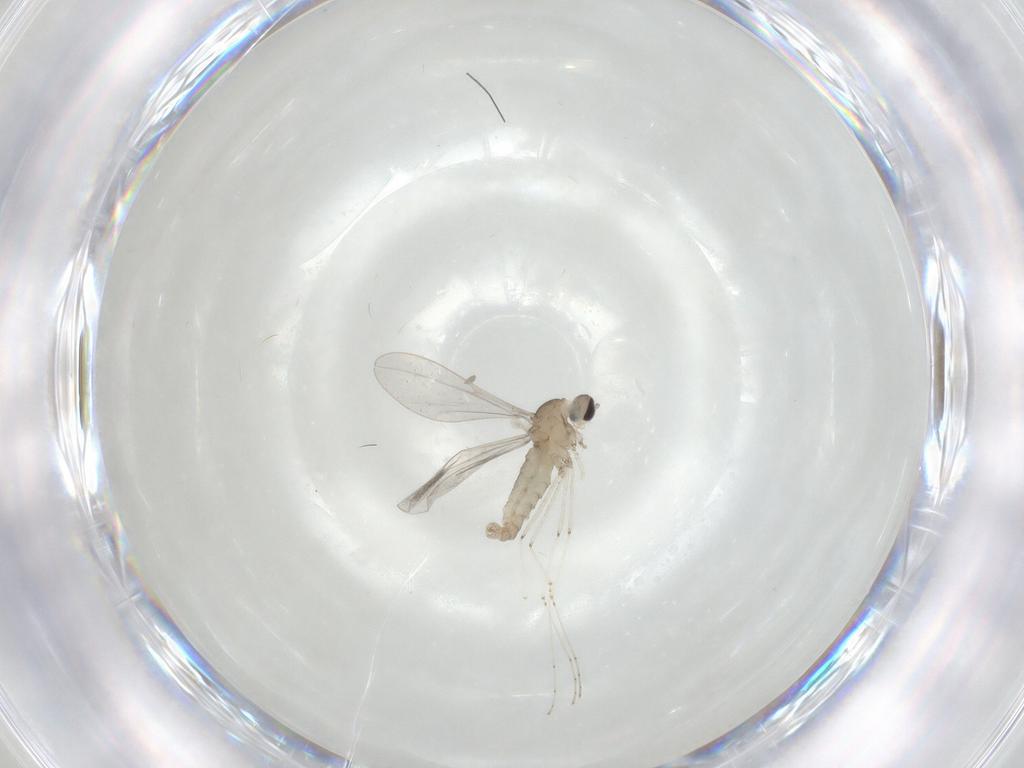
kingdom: Animalia
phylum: Arthropoda
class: Insecta
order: Diptera
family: Cecidomyiidae
